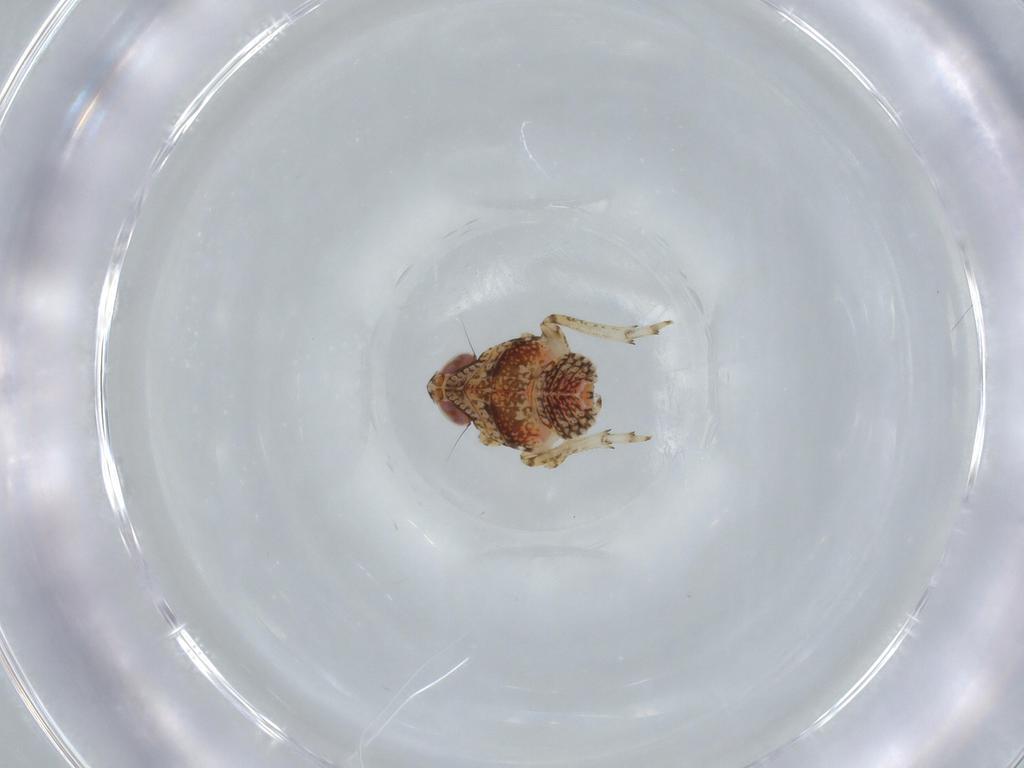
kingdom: Animalia
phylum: Arthropoda
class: Insecta
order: Hemiptera
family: Issidae
